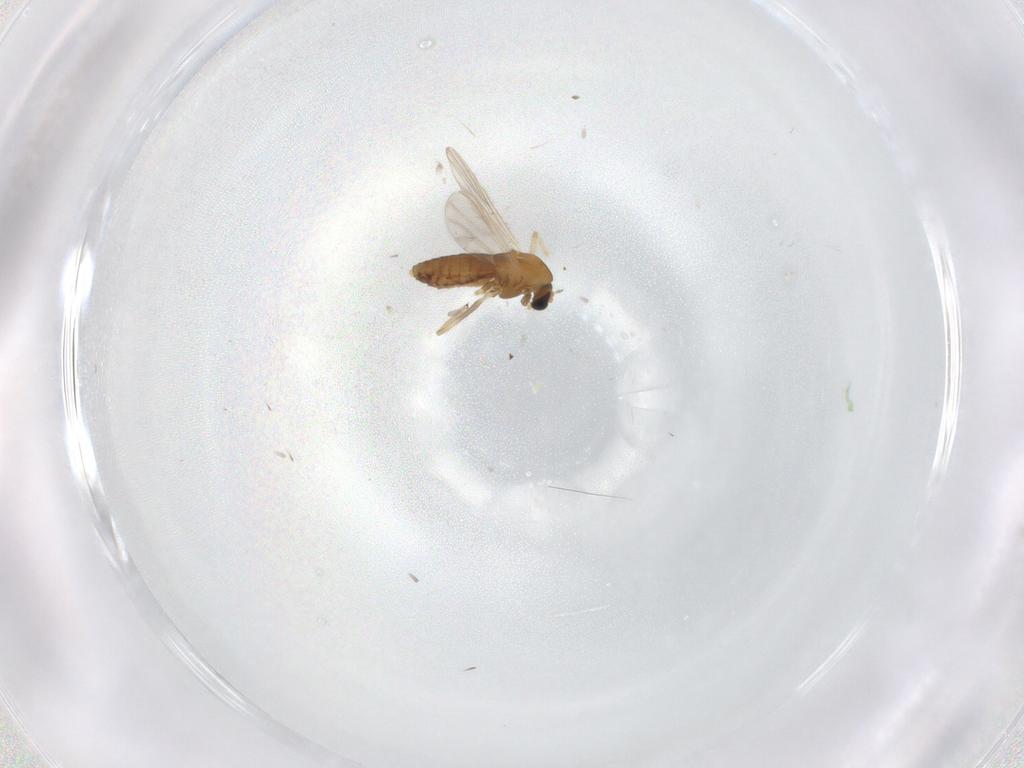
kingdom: Animalia
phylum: Arthropoda
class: Insecta
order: Diptera
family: Chironomidae
